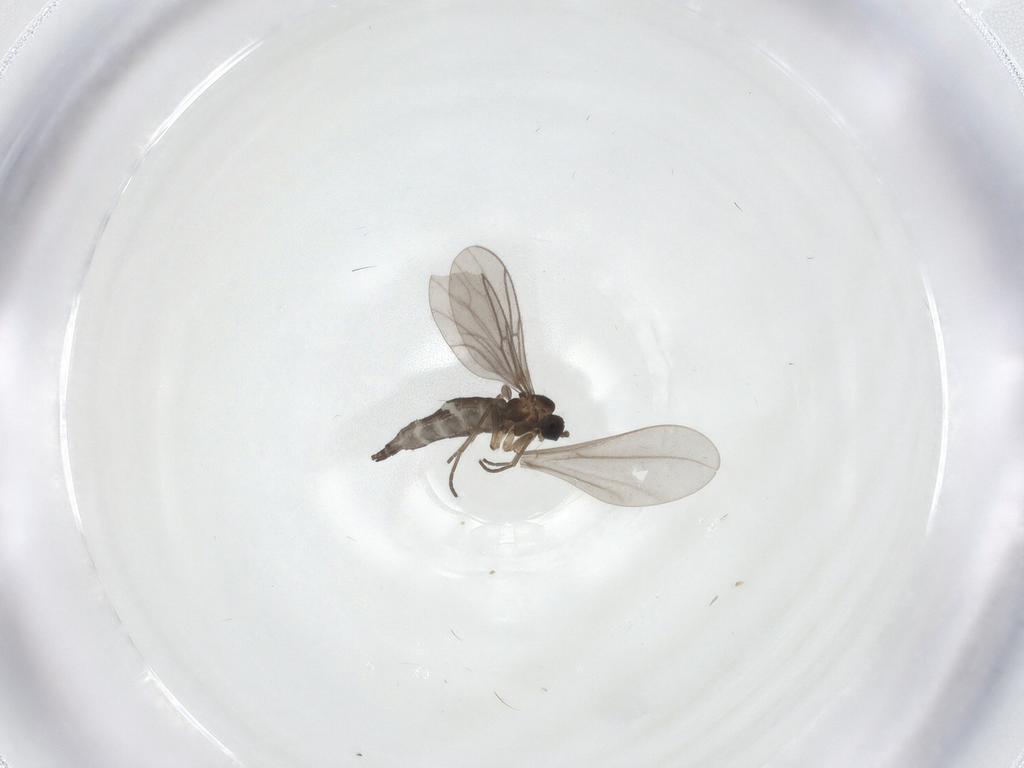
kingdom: Animalia
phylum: Arthropoda
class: Insecta
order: Diptera
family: Sciaridae
